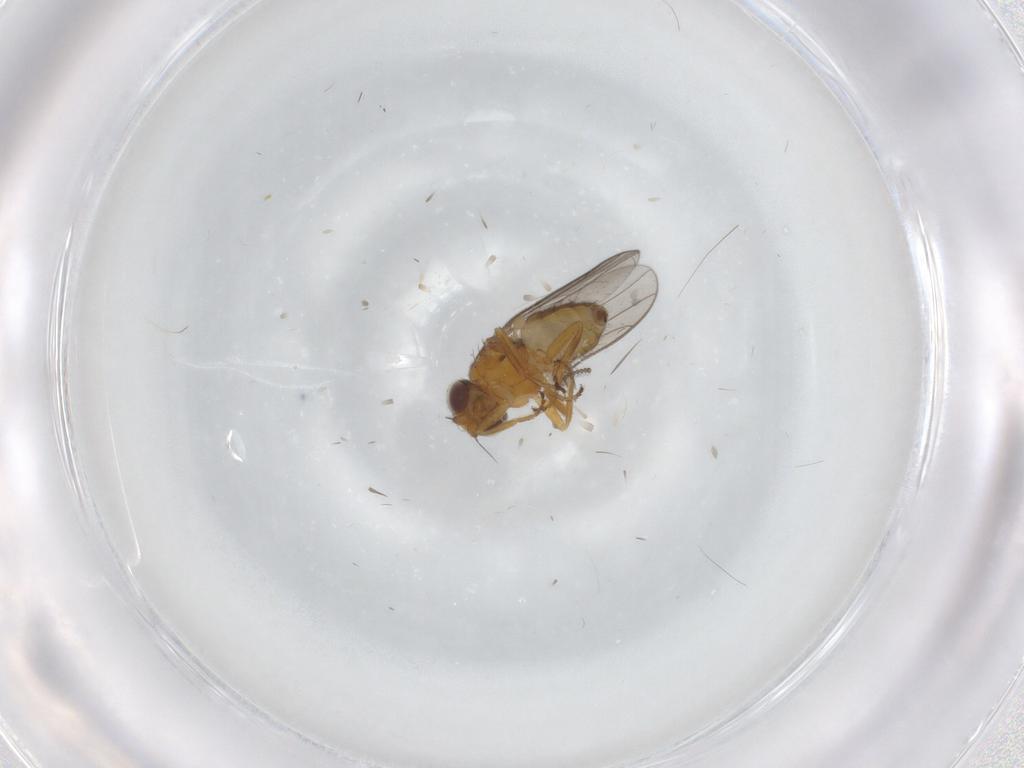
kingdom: Animalia
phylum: Arthropoda
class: Insecta
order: Diptera
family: Chloropidae
